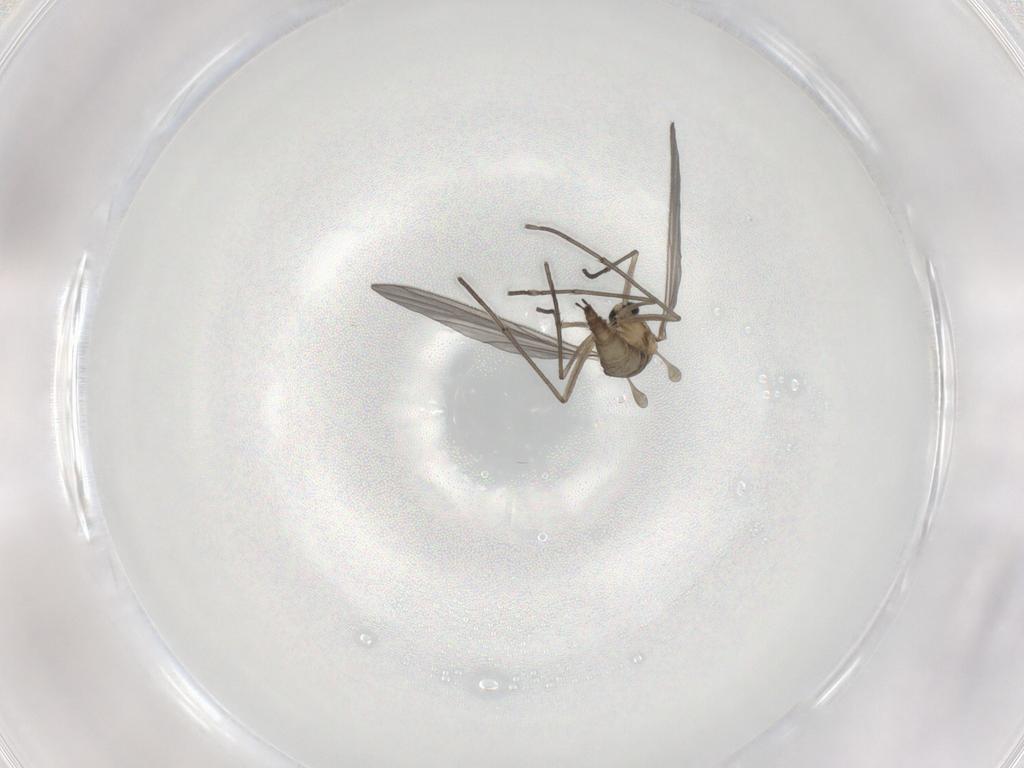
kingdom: Animalia
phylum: Arthropoda
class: Insecta
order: Diptera
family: Sciaridae
